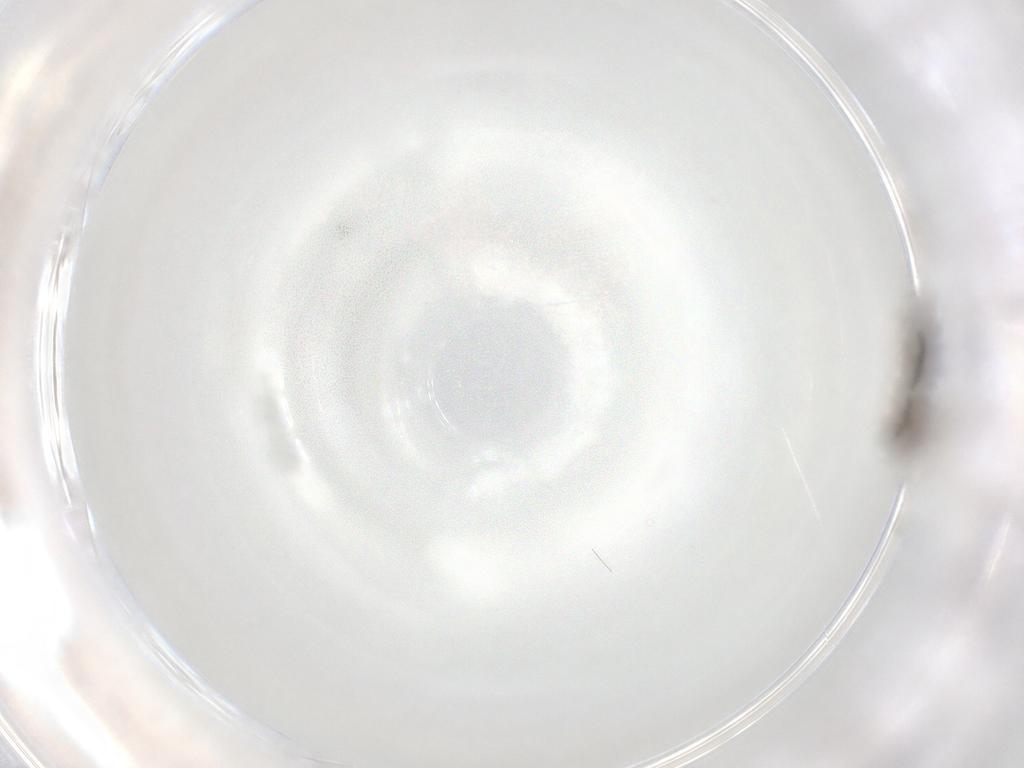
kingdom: Animalia
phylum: Arthropoda
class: Insecta
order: Diptera
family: Sciaridae
